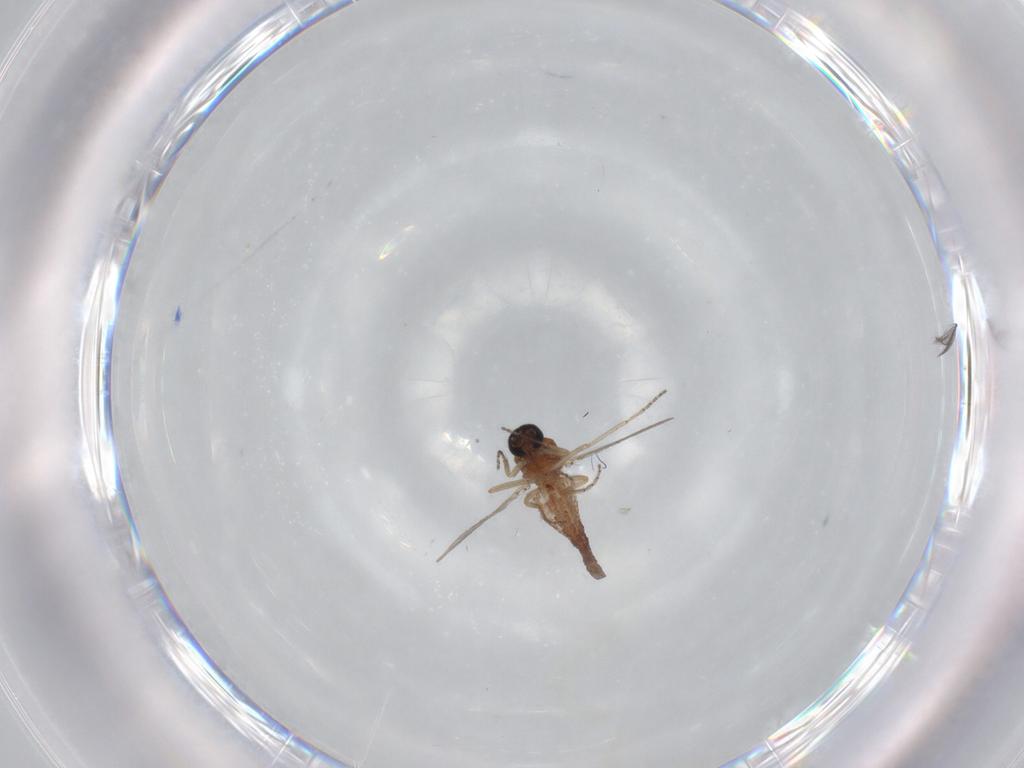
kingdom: Animalia
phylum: Arthropoda
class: Insecta
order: Diptera
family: Ceratopogonidae
